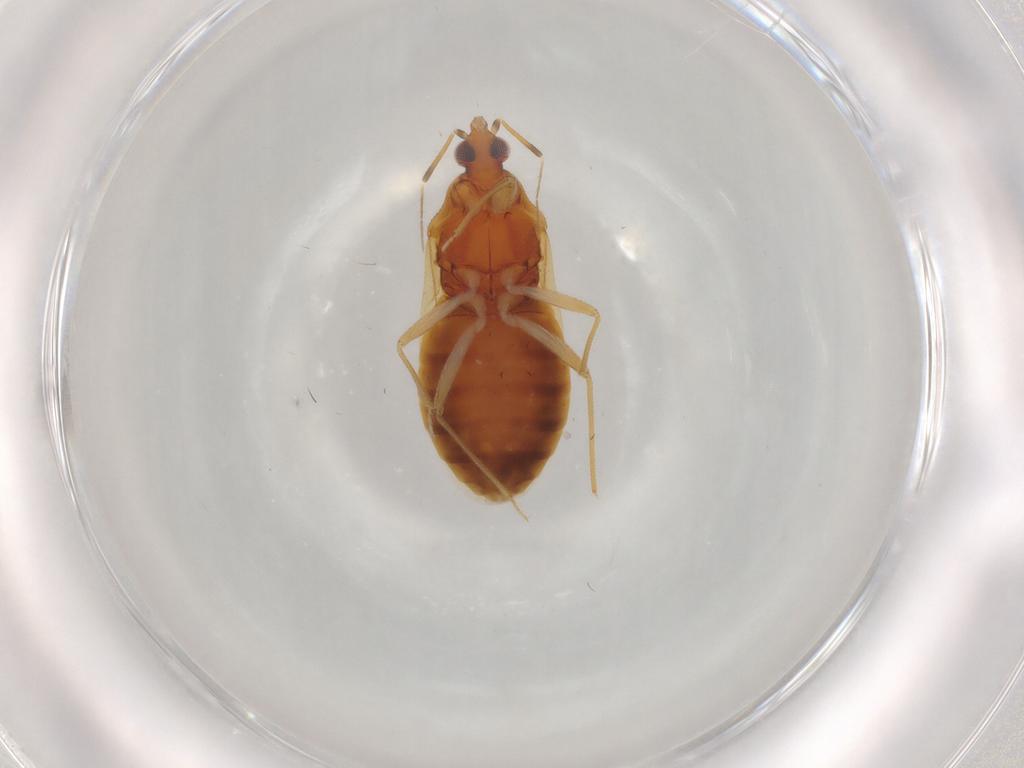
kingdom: Animalia
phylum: Arthropoda
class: Insecta
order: Hemiptera
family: Anthocoridae
